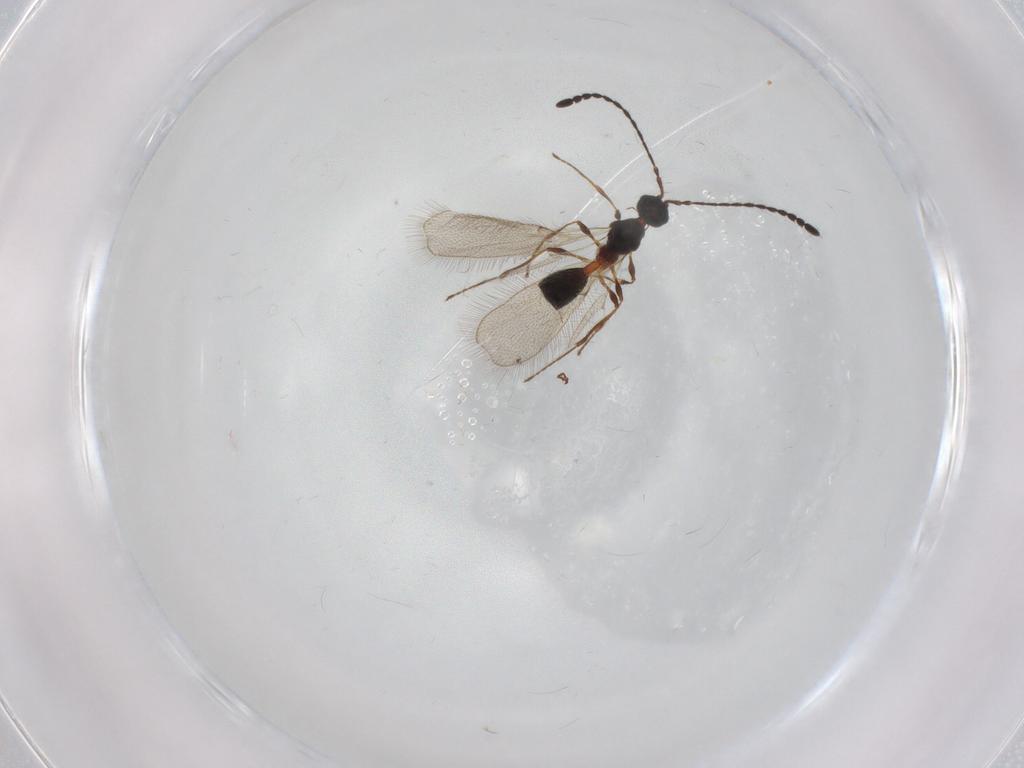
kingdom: Animalia
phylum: Arthropoda
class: Insecta
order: Hymenoptera
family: Diapriidae
